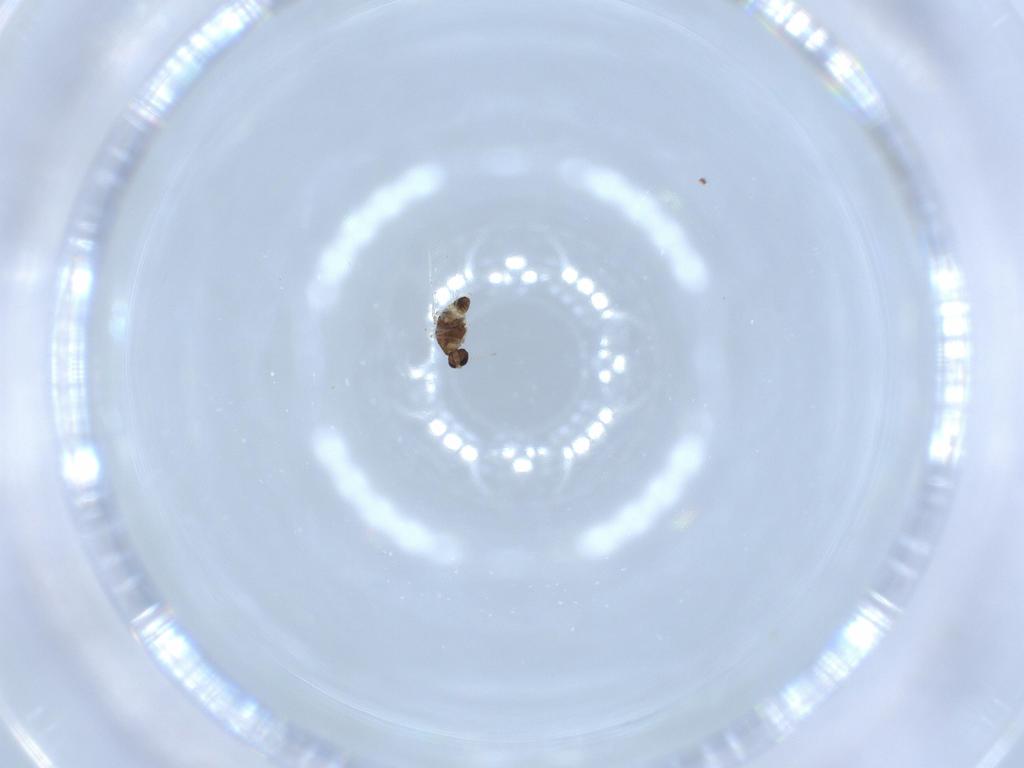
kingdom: Animalia
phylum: Arthropoda
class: Insecta
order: Diptera
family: Chironomidae
